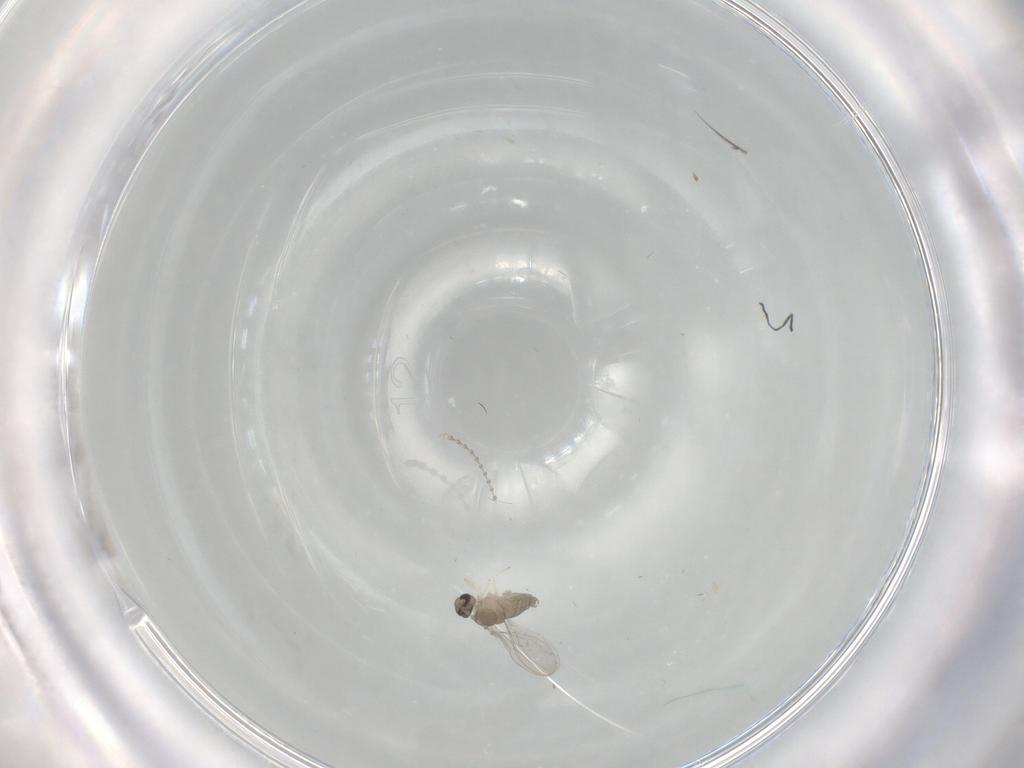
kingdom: Animalia
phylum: Arthropoda
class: Insecta
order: Diptera
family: Cecidomyiidae
